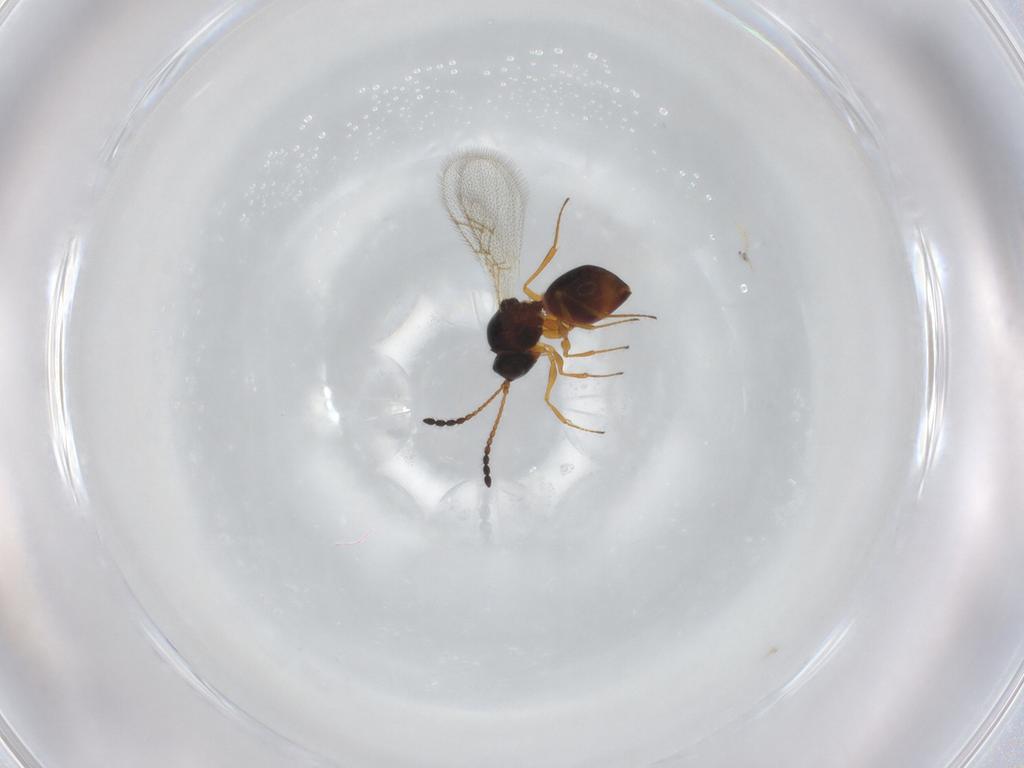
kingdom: Animalia
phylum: Arthropoda
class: Insecta
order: Hymenoptera
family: Figitidae
